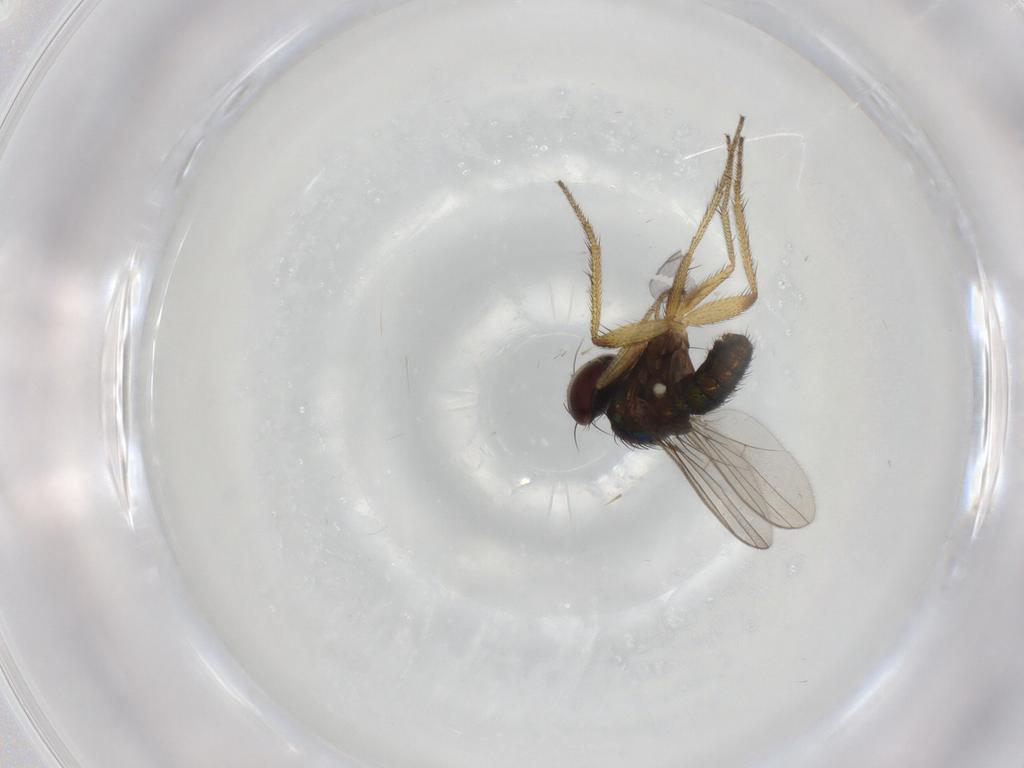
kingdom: Animalia
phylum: Arthropoda
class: Insecta
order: Diptera
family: Dolichopodidae
